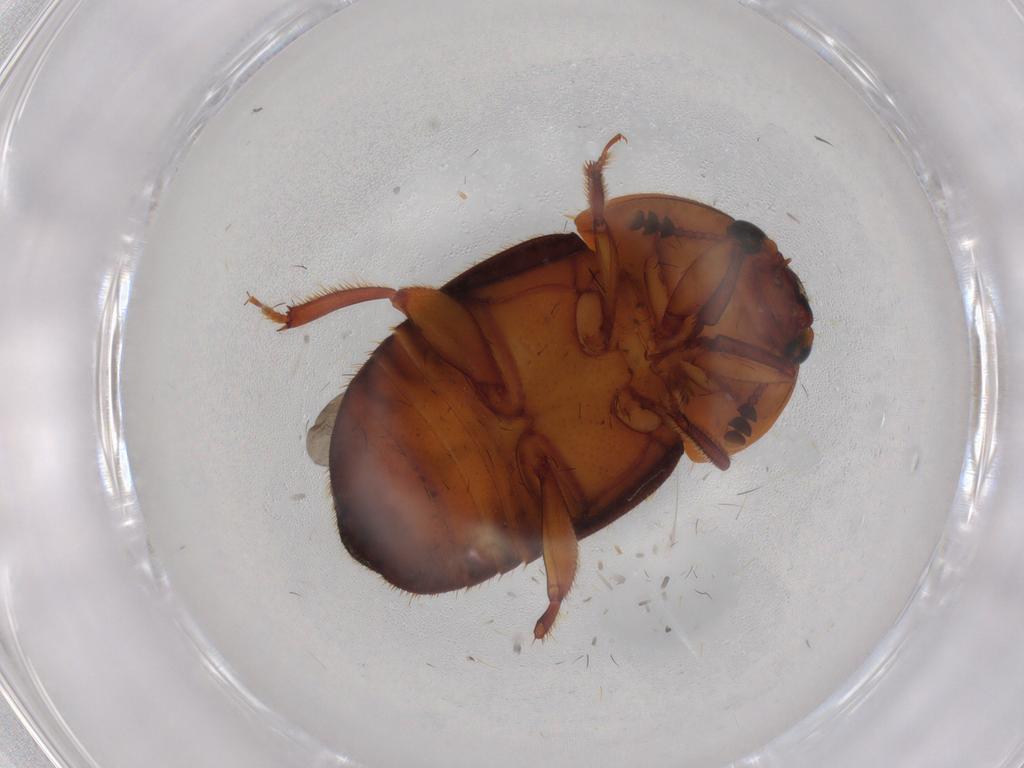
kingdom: Animalia
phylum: Arthropoda
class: Insecta
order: Coleoptera
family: Nitidulidae
